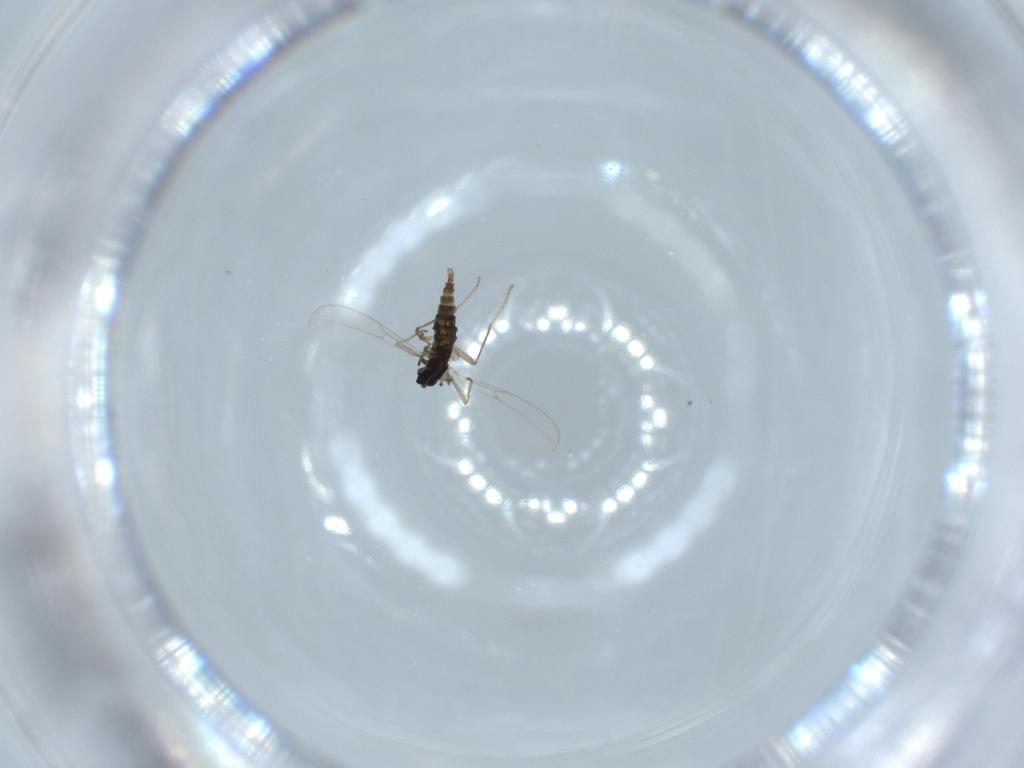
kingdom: Animalia
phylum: Arthropoda
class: Insecta
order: Diptera
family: Cecidomyiidae
